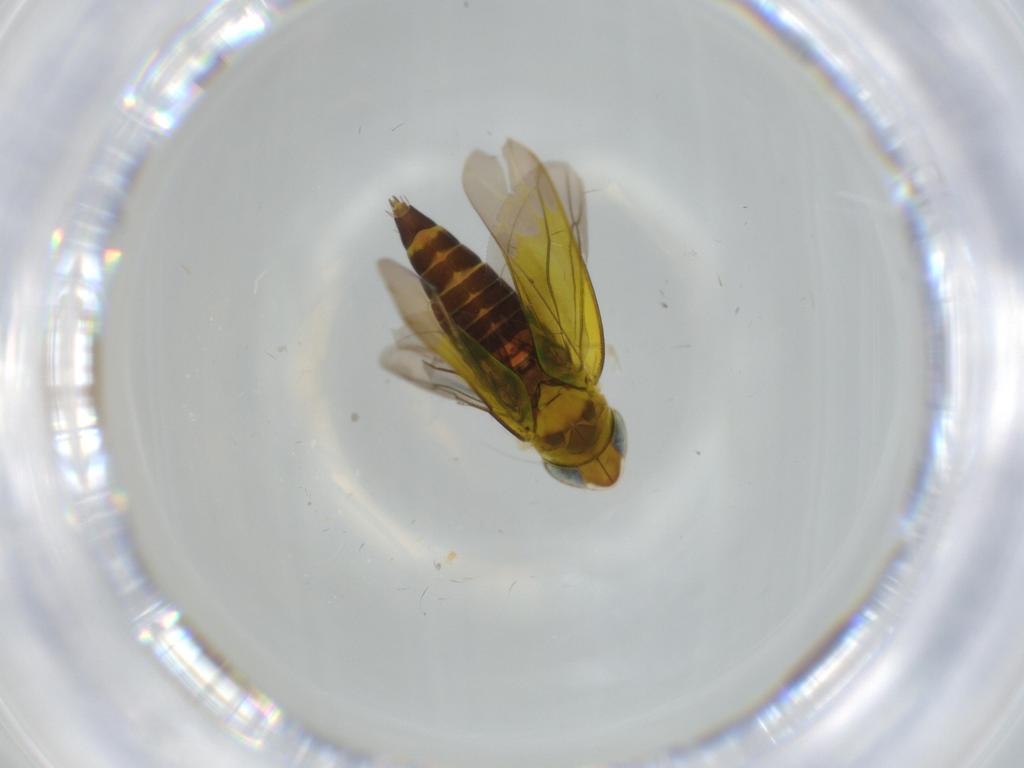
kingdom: Animalia
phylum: Arthropoda
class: Insecta
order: Hemiptera
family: Cicadellidae
